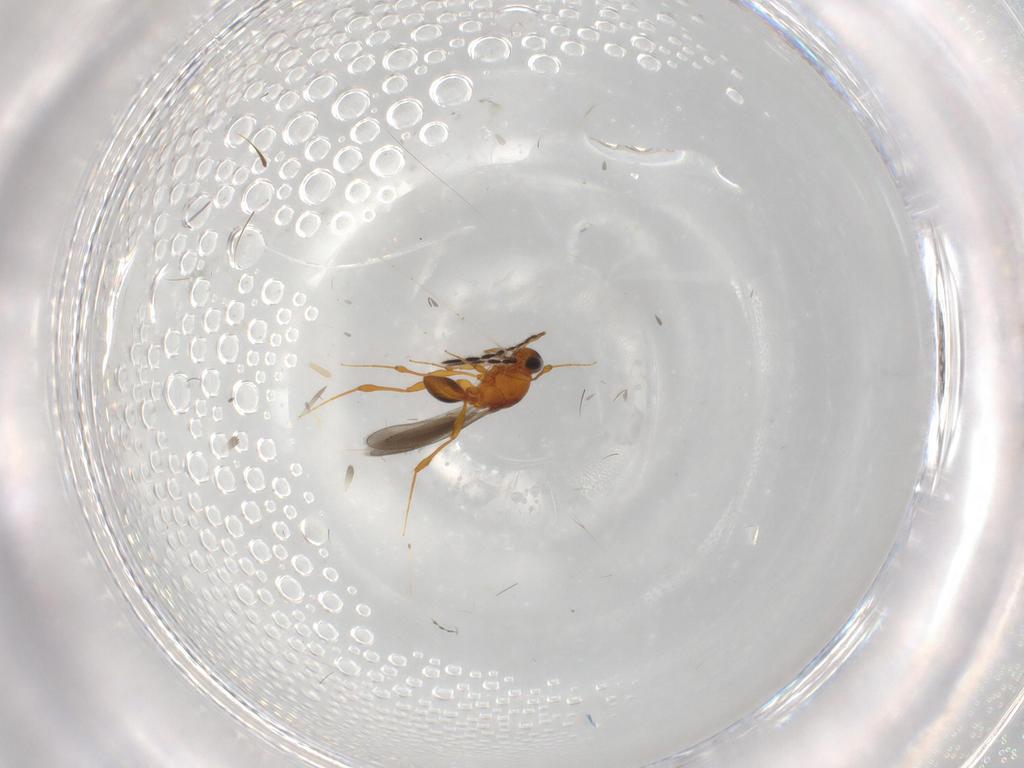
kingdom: Animalia
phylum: Arthropoda
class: Insecta
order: Hymenoptera
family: Platygastridae
